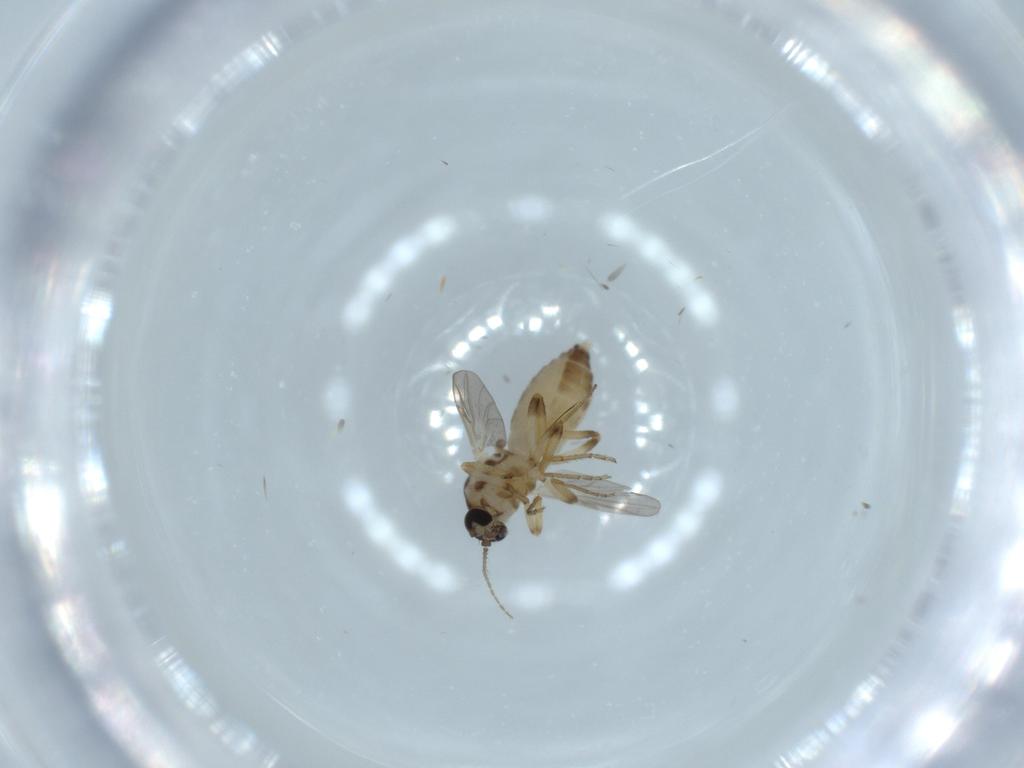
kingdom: Animalia
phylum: Arthropoda
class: Insecta
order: Diptera
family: Ceratopogonidae
